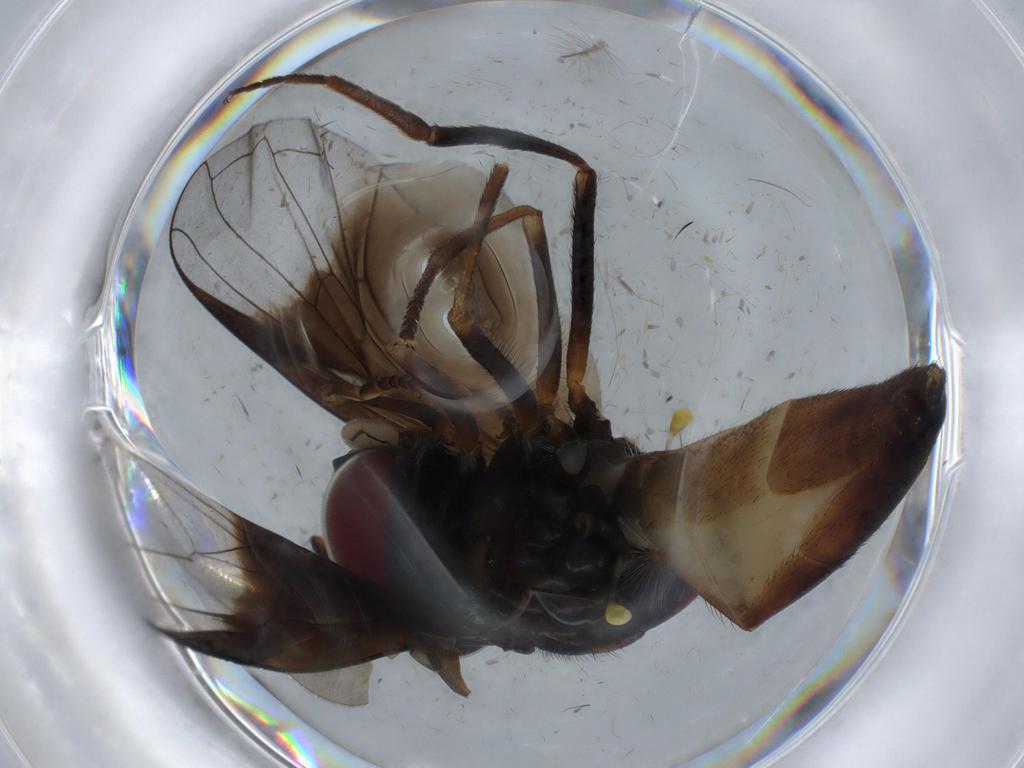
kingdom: Animalia
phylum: Arthropoda
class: Insecta
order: Diptera
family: Syrphidae
